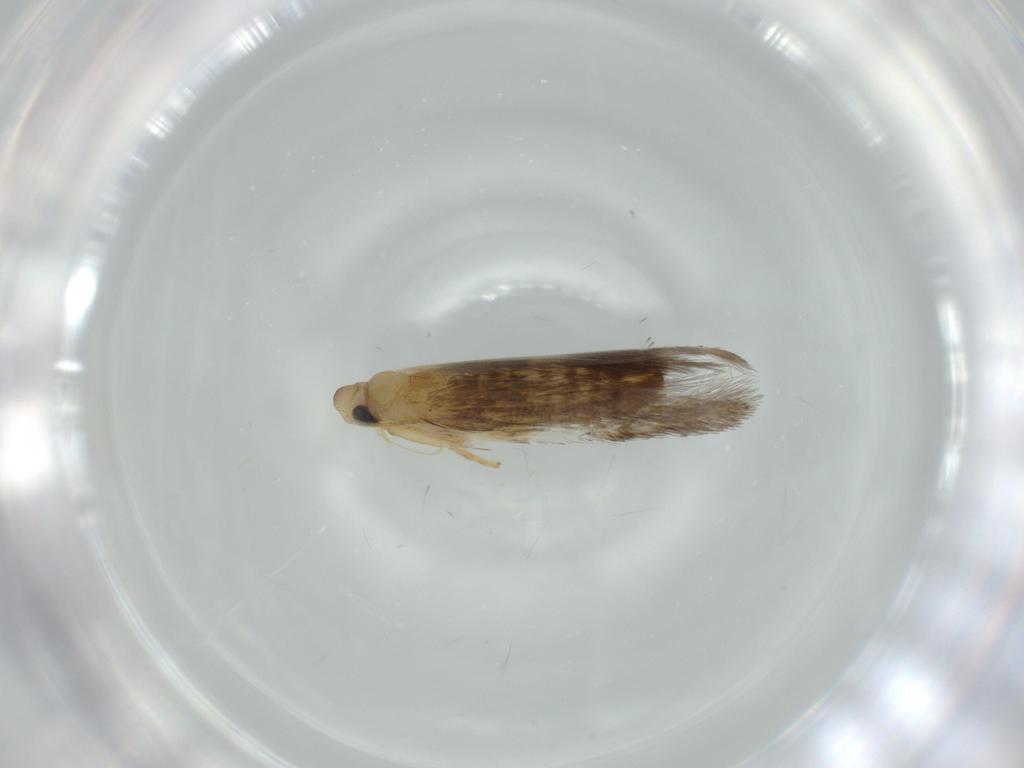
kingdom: Animalia
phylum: Arthropoda
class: Insecta
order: Lepidoptera
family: Tischeriidae
